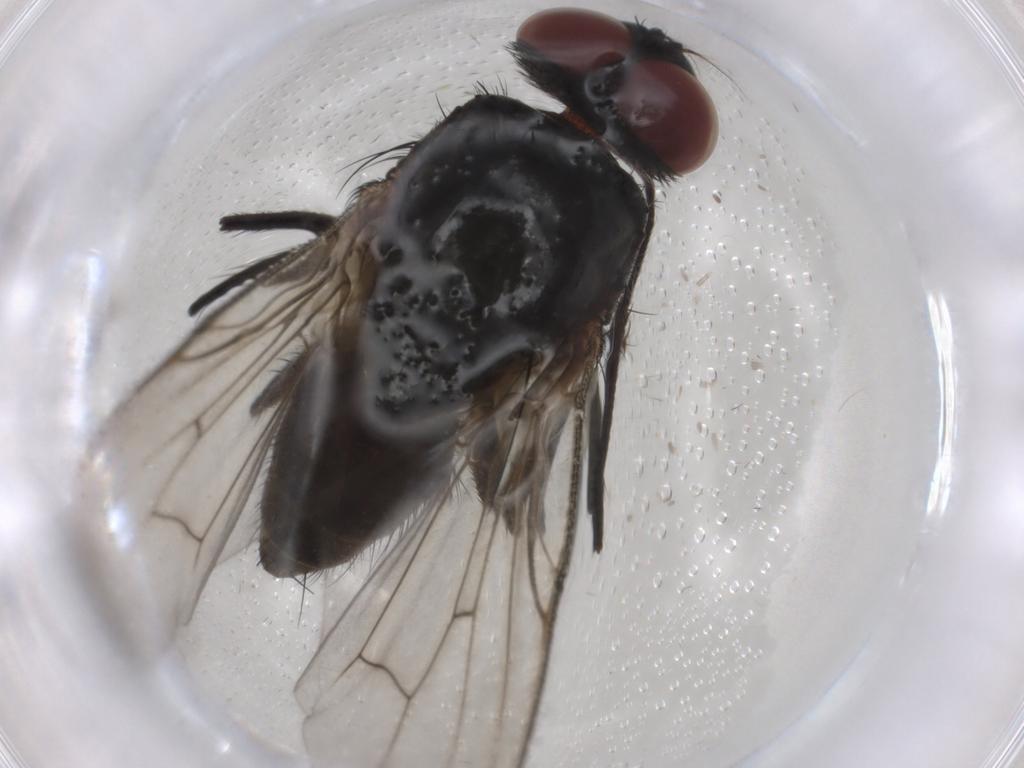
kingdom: Animalia
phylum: Arthropoda
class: Insecta
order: Diptera
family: Muscidae
